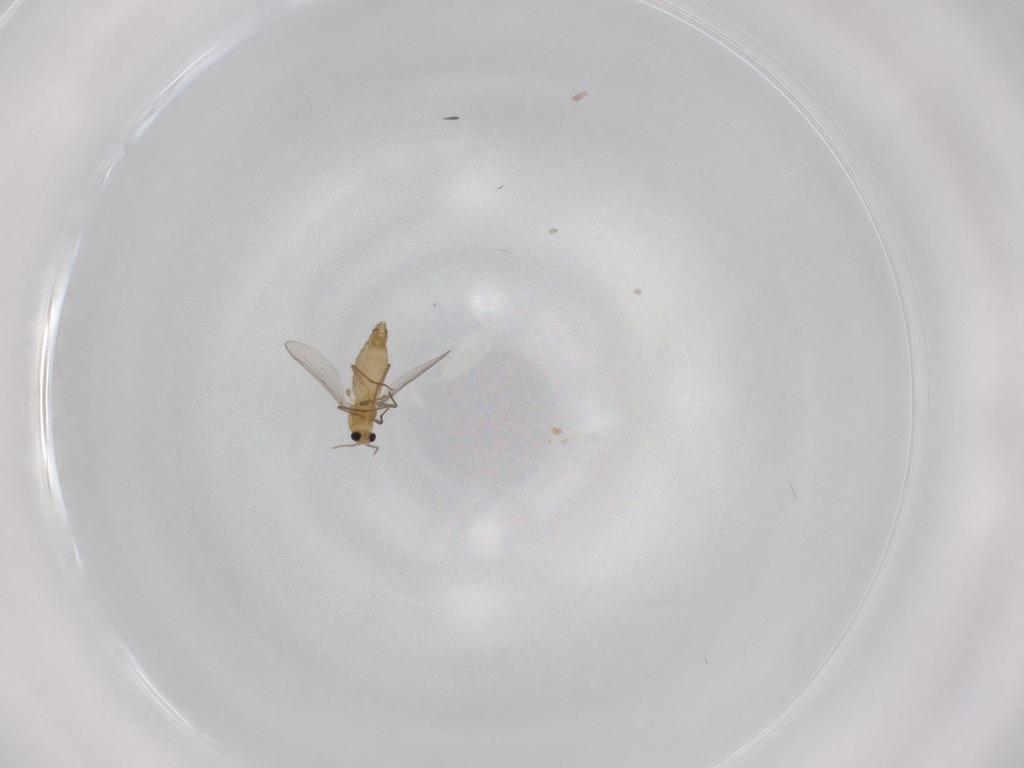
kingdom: Animalia
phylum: Arthropoda
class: Insecta
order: Diptera
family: Chironomidae
